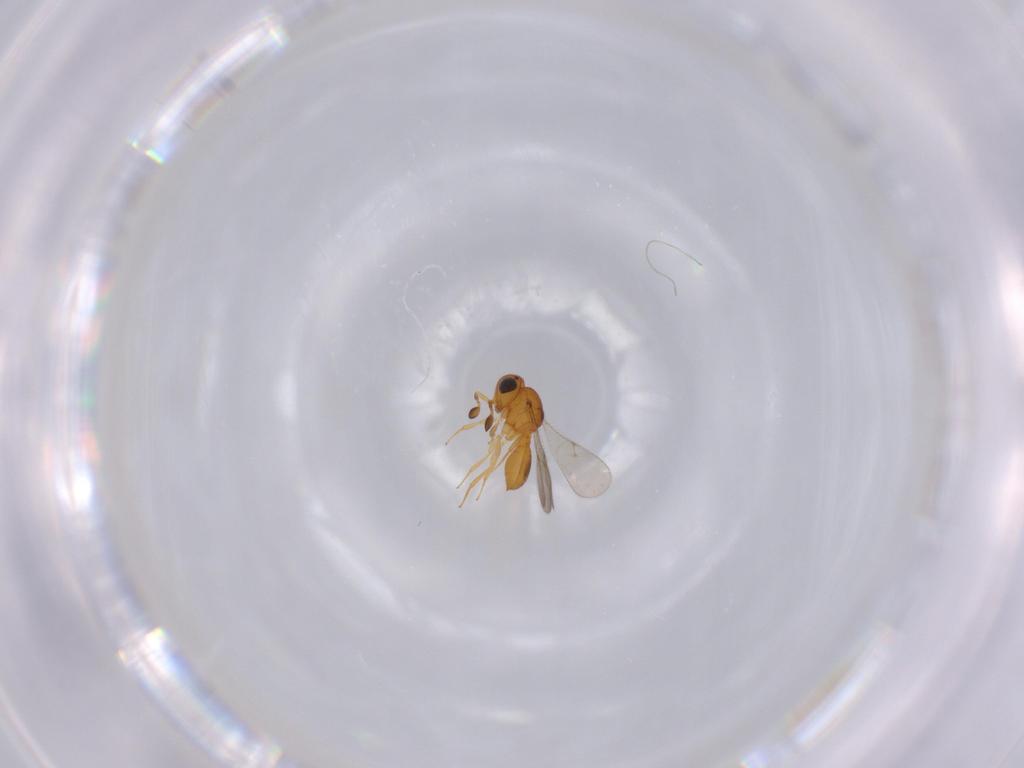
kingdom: Animalia
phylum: Arthropoda
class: Insecta
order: Hymenoptera
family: Scelionidae
